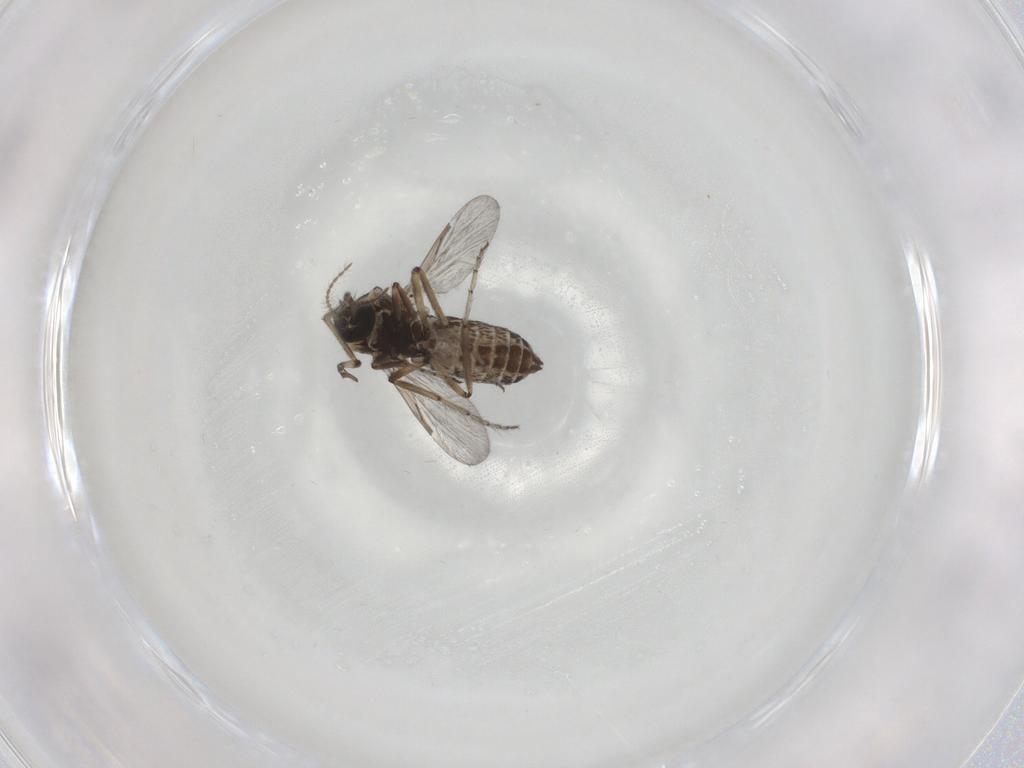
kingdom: Animalia
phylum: Arthropoda
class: Insecta
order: Diptera
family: Ceratopogonidae
